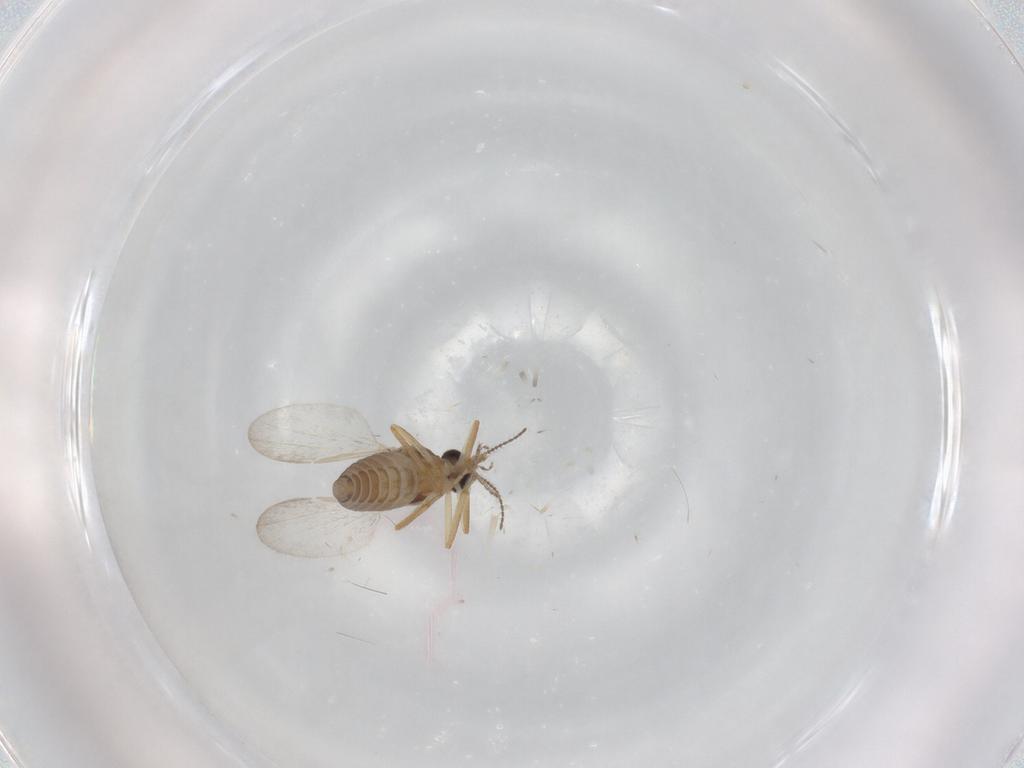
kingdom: Animalia
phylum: Arthropoda
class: Insecta
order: Diptera
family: Ceratopogonidae
